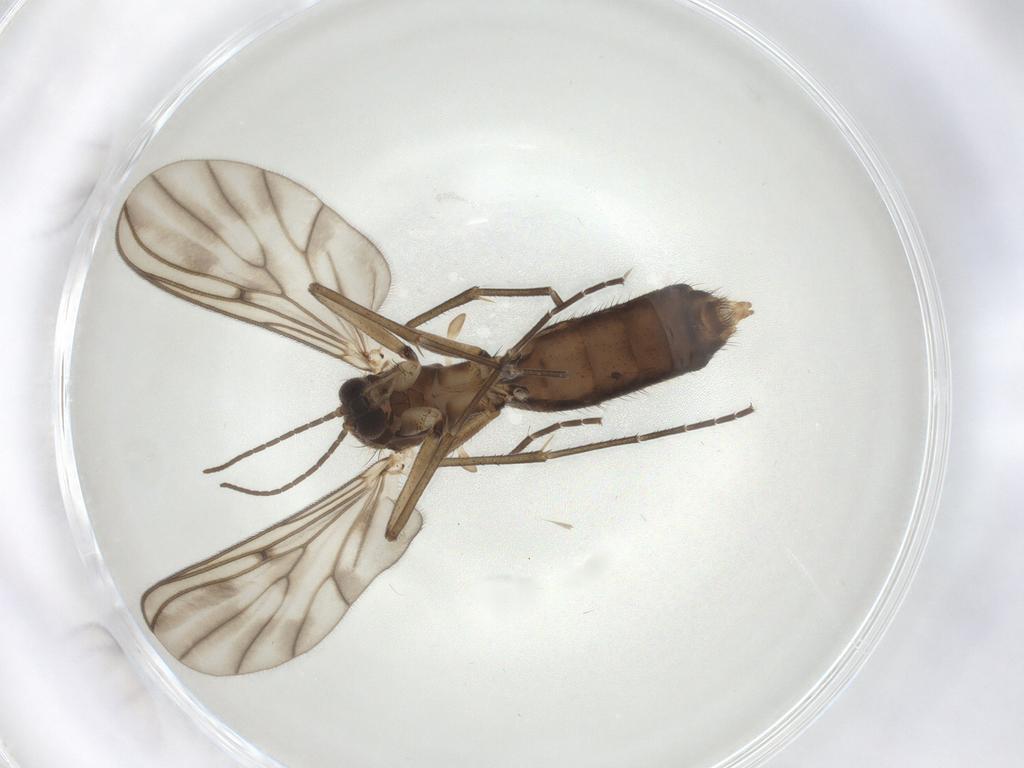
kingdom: Animalia
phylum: Arthropoda
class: Insecta
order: Diptera
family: Mycetophilidae
